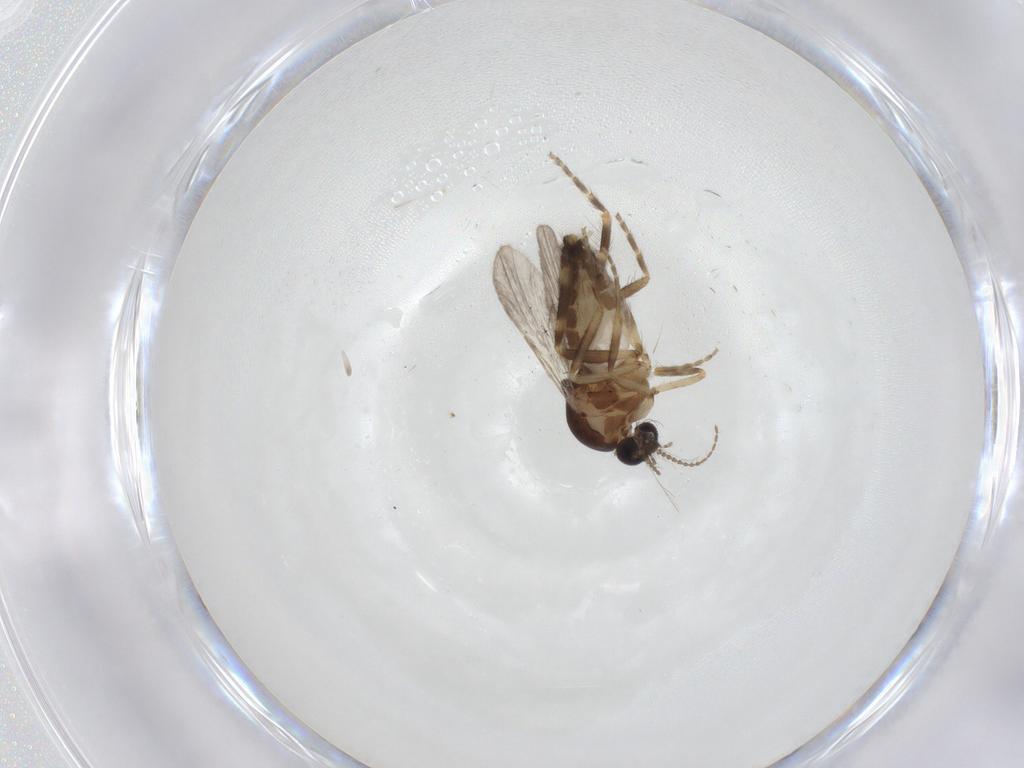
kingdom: Animalia
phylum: Arthropoda
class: Insecta
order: Diptera
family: Ceratopogonidae
